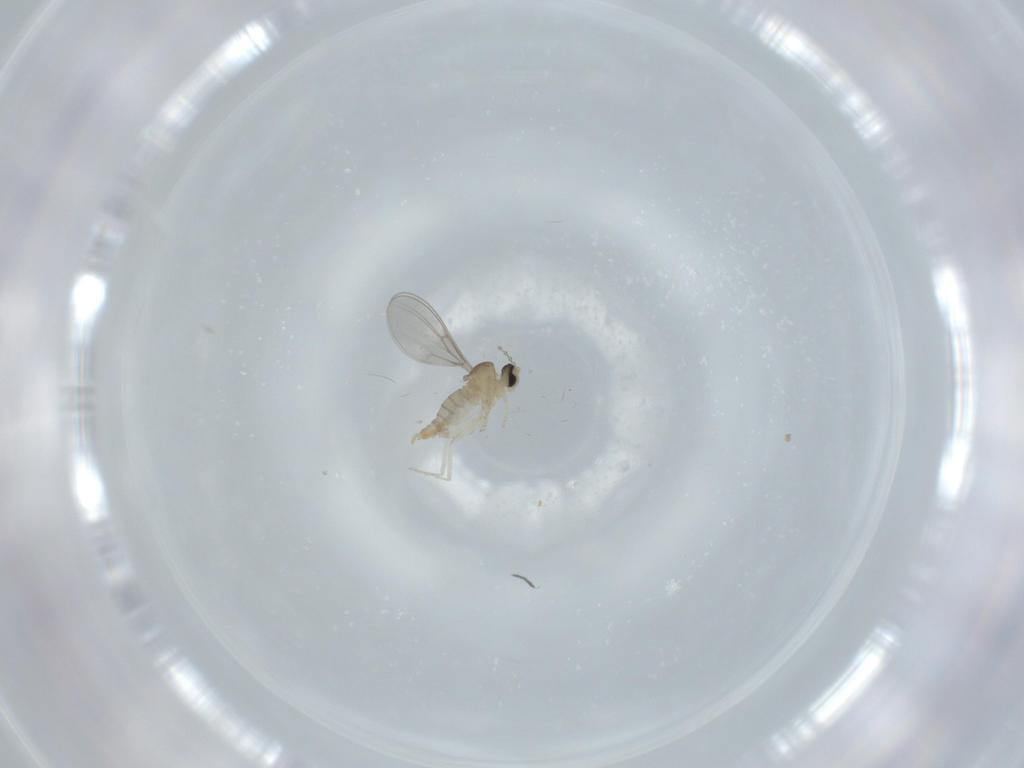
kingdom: Animalia
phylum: Arthropoda
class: Insecta
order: Diptera
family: Cecidomyiidae
